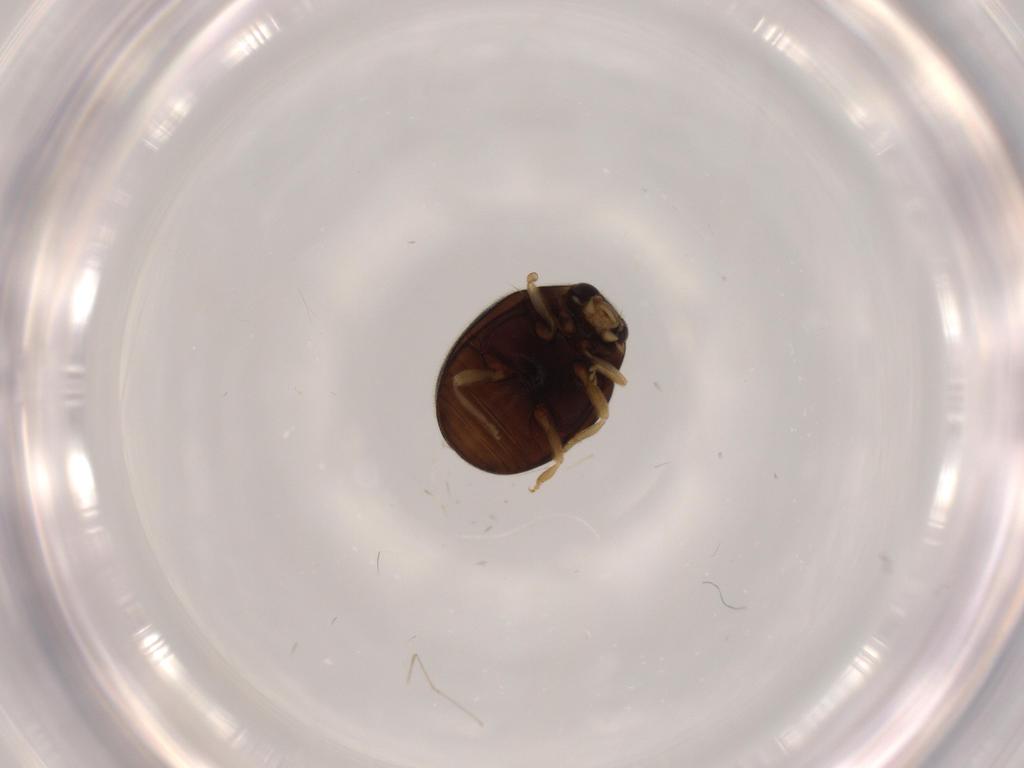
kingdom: Animalia
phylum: Arthropoda
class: Insecta
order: Coleoptera
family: Coccinellidae
